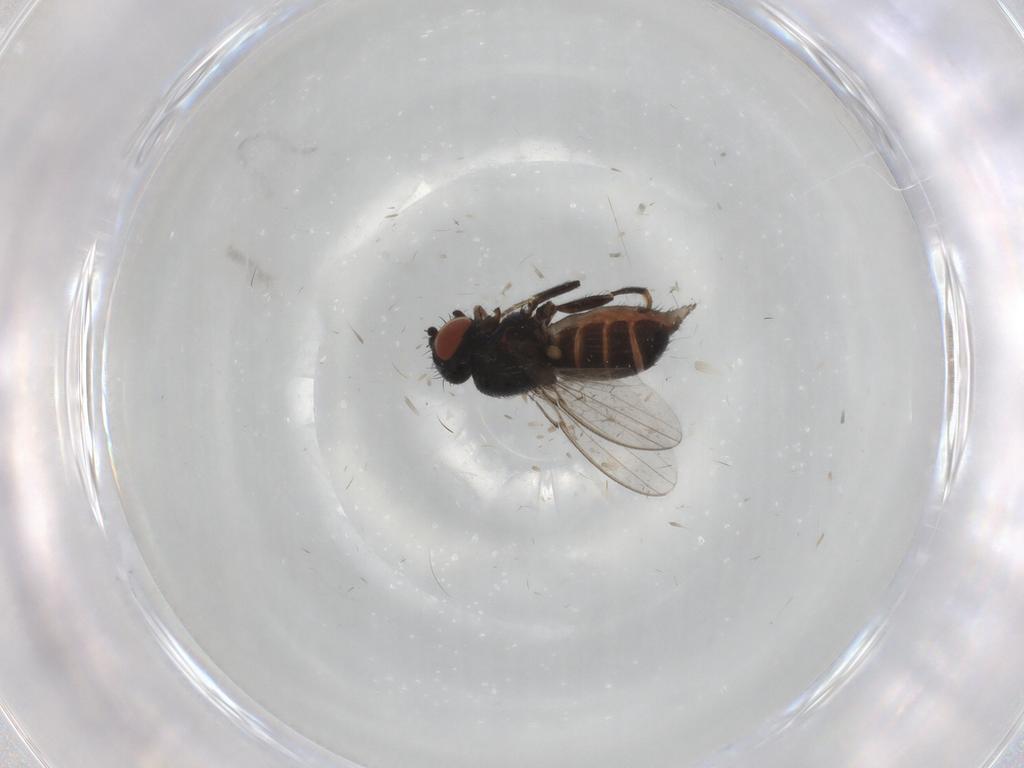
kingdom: Animalia
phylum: Arthropoda
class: Insecta
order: Diptera
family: Milichiidae
